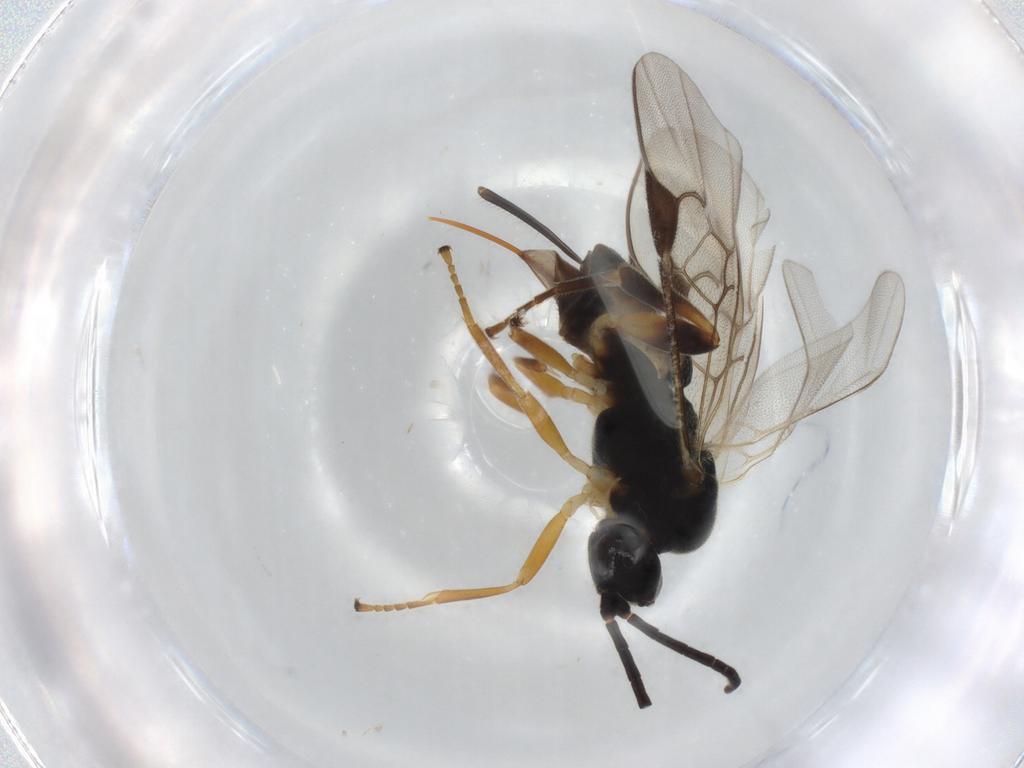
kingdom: Animalia
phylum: Arthropoda
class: Insecta
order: Hymenoptera
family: Braconidae
